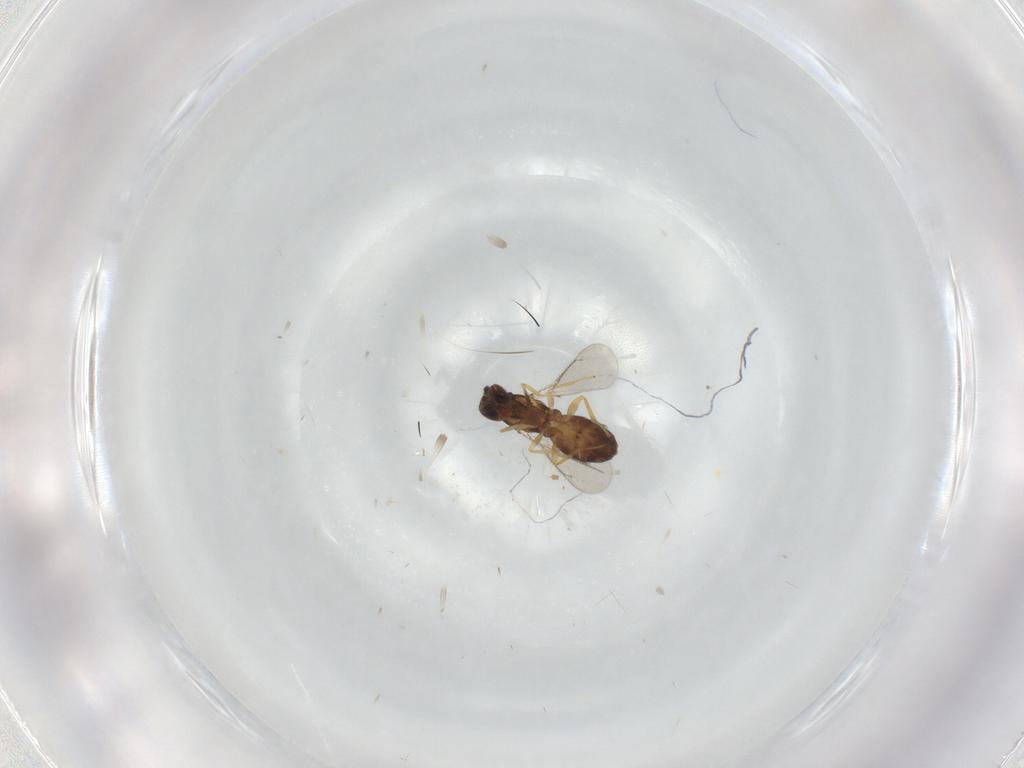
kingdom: Animalia
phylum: Arthropoda
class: Insecta
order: Hymenoptera
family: Eulophidae
